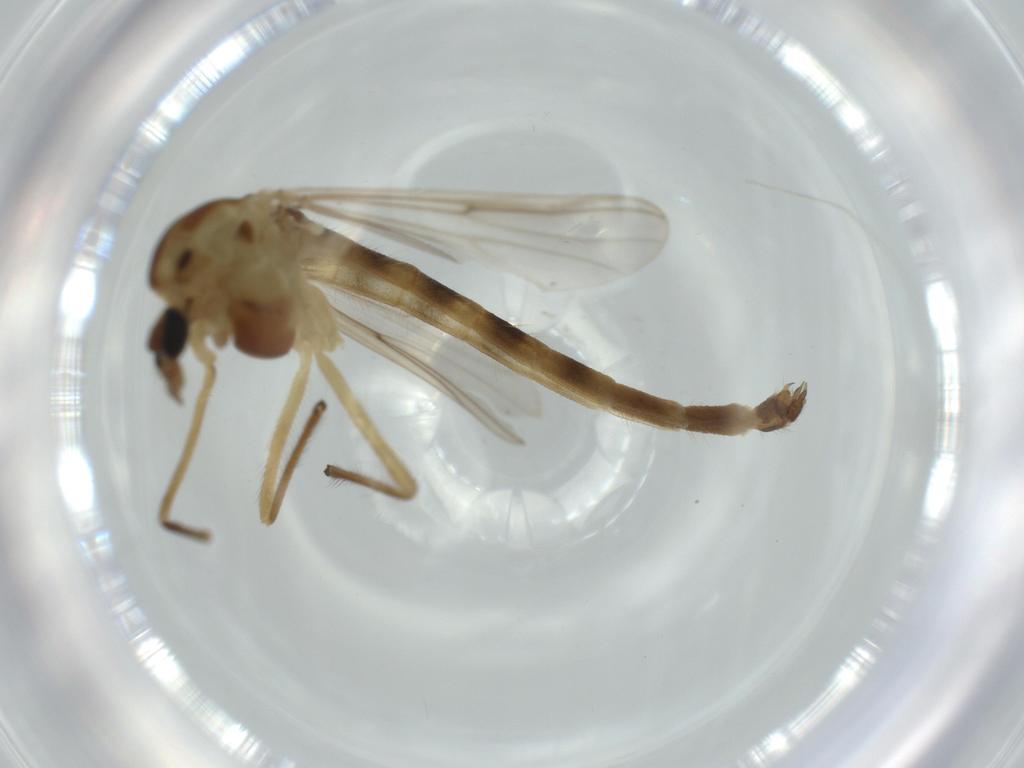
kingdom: Animalia
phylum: Arthropoda
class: Insecta
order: Diptera
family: Ceratopogonidae
